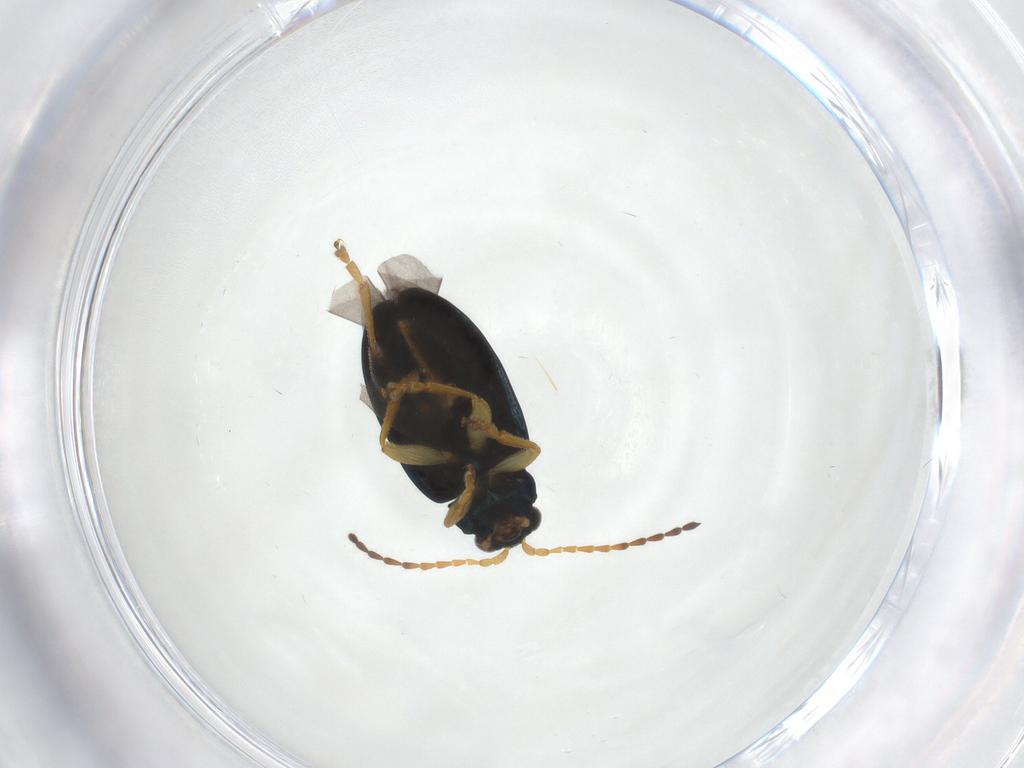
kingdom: Animalia
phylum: Arthropoda
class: Insecta
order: Coleoptera
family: Chrysomelidae
